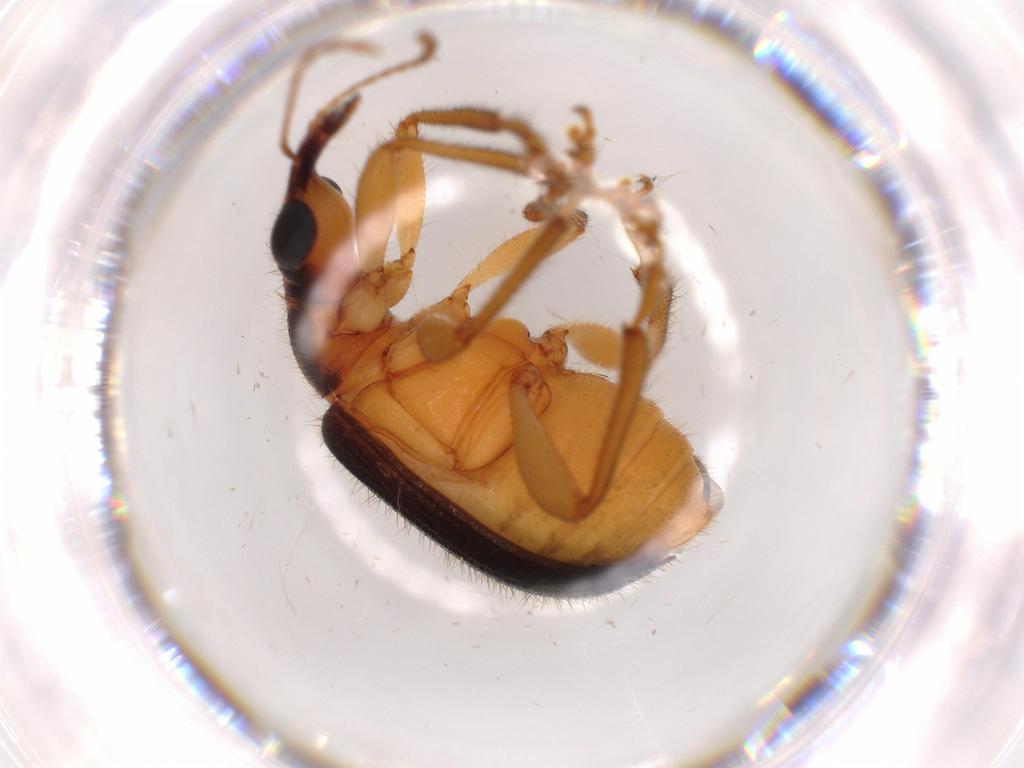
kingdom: Animalia
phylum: Arthropoda
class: Insecta
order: Coleoptera
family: Attelabidae
